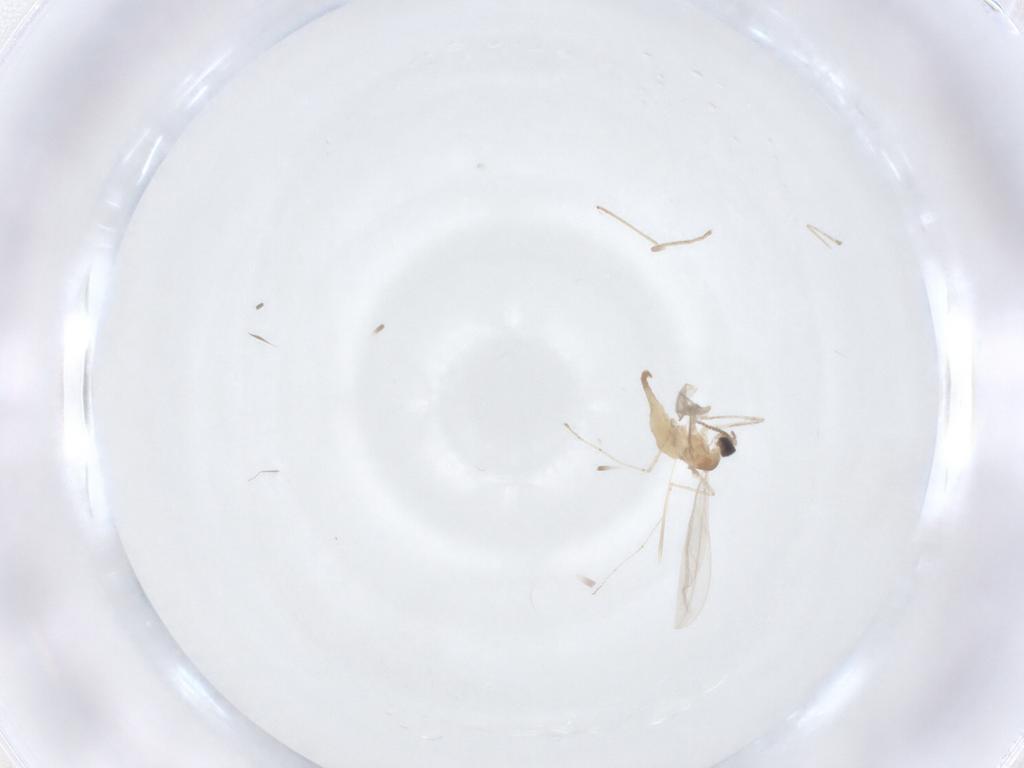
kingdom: Animalia
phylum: Arthropoda
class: Insecta
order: Diptera
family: Cecidomyiidae
